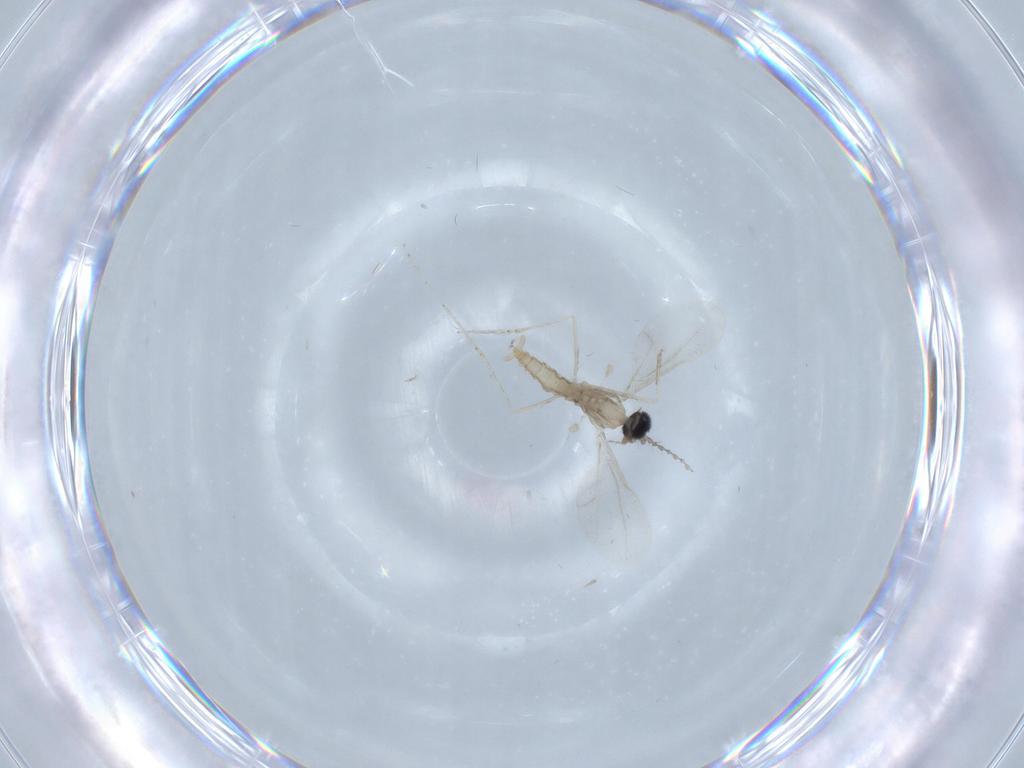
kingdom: Animalia
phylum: Arthropoda
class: Insecta
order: Diptera
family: Cecidomyiidae
